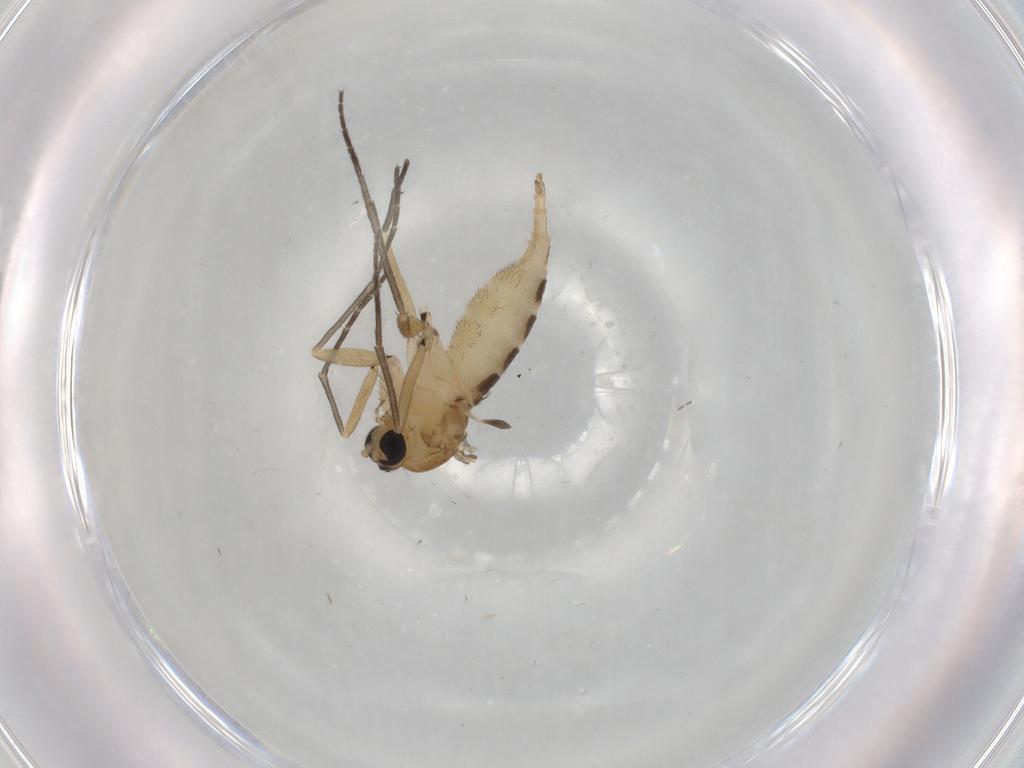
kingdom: Animalia
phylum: Arthropoda
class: Insecta
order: Diptera
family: Sciaridae
